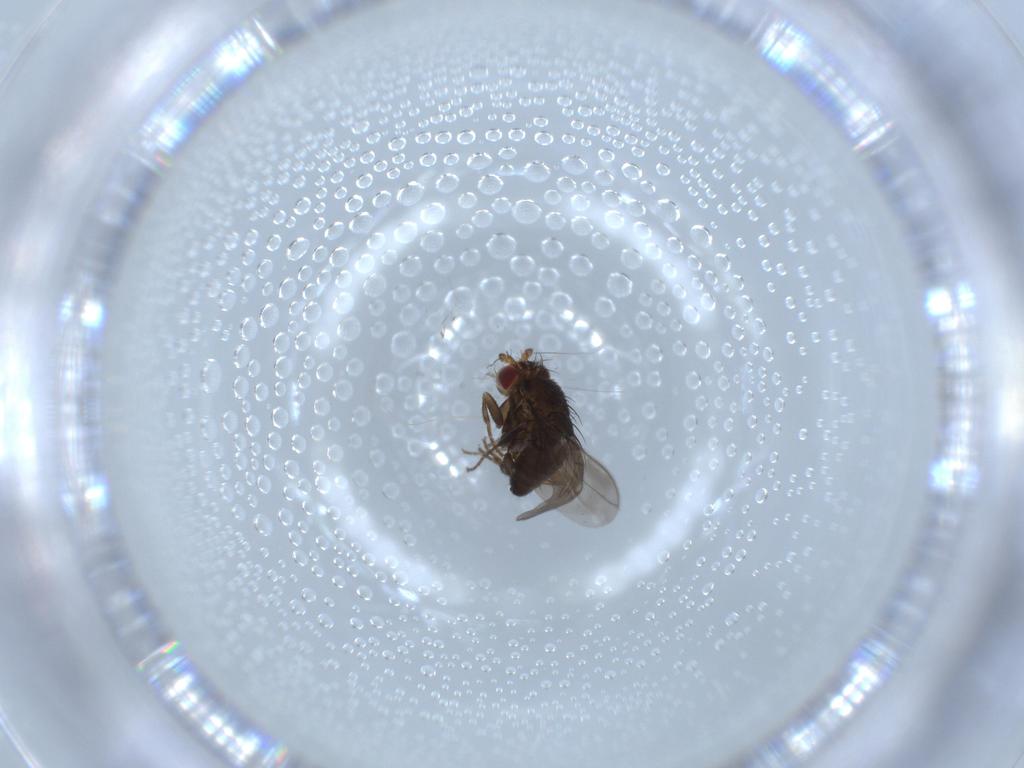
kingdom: Animalia
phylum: Arthropoda
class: Insecta
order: Diptera
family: Chironomidae
